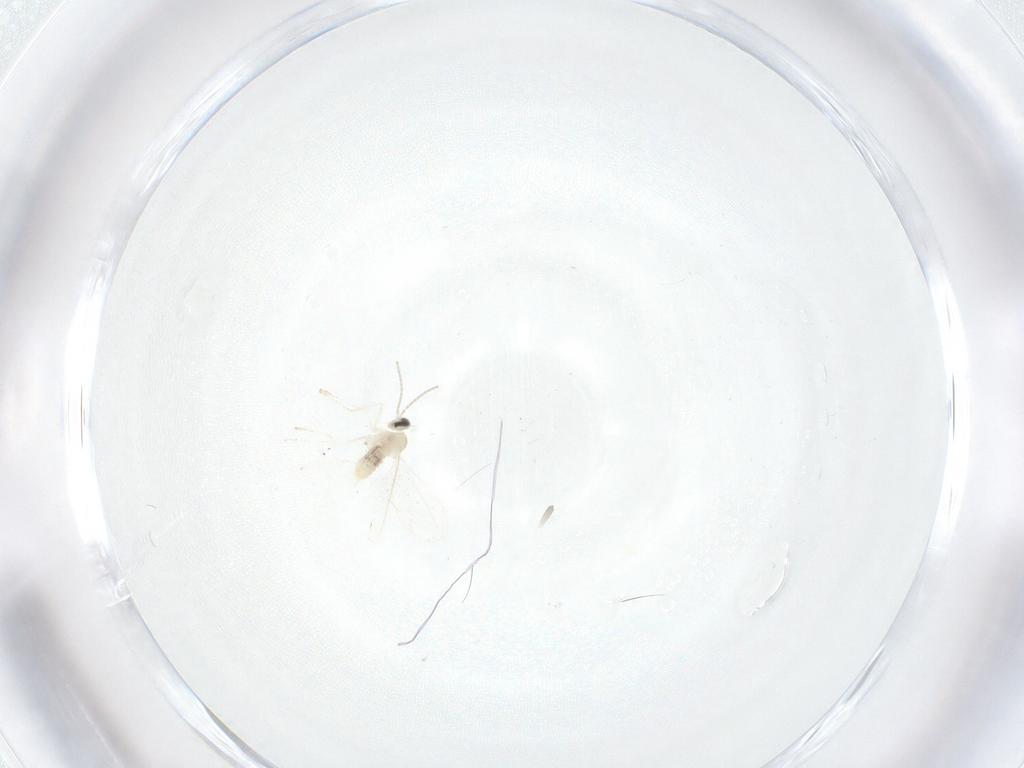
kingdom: Animalia
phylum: Arthropoda
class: Insecta
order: Diptera
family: Cecidomyiidae
